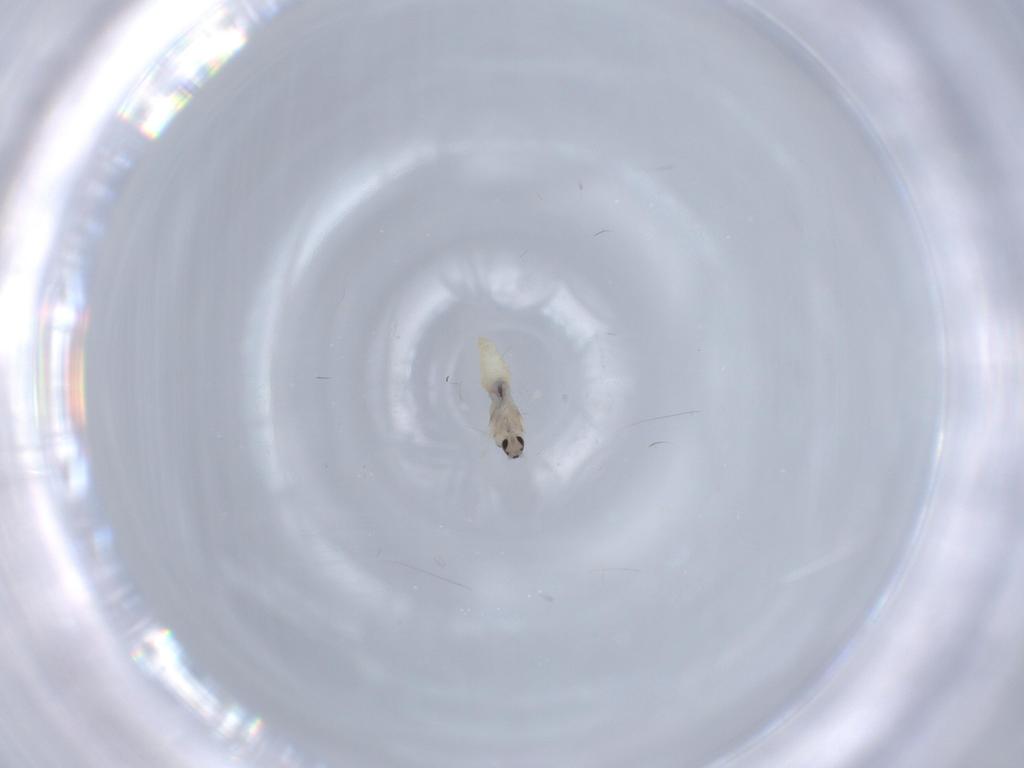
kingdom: Animalia
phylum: Arthropoda
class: Insecta
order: Diptera
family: Cecidomyiidae
